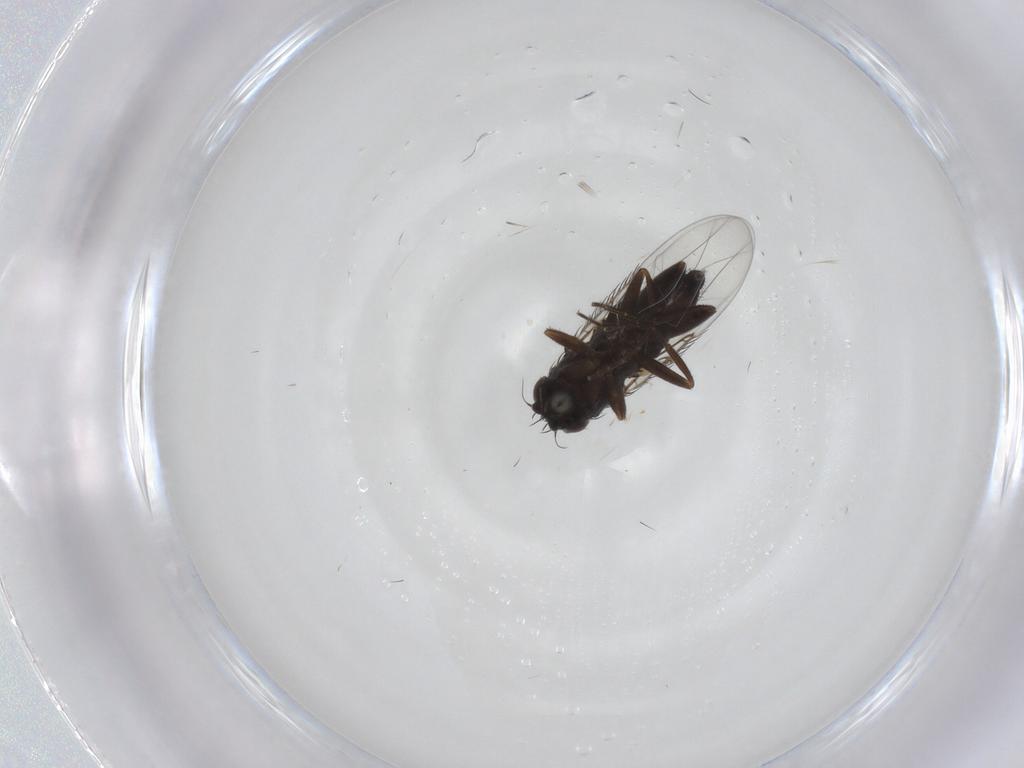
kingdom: Animalia
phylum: Arthropoda
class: Insecta
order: Diptera
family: Phoridae
